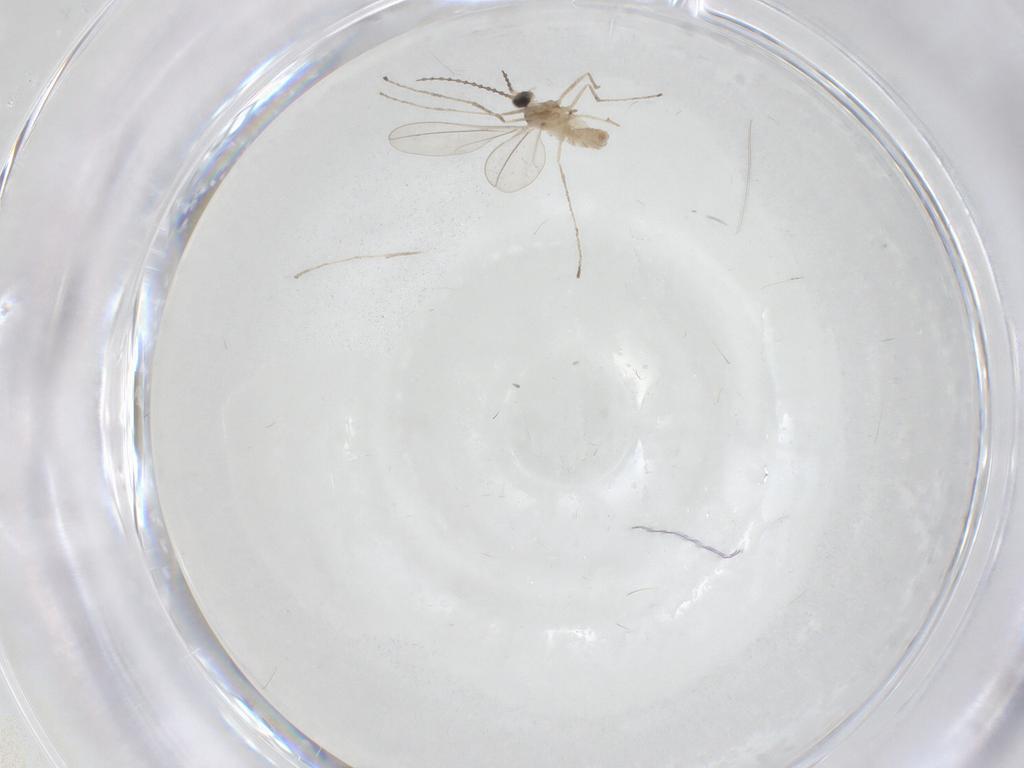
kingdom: Animalia
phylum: Arthropoda
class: Insecta
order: Diptera
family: Cecidomyiidae
